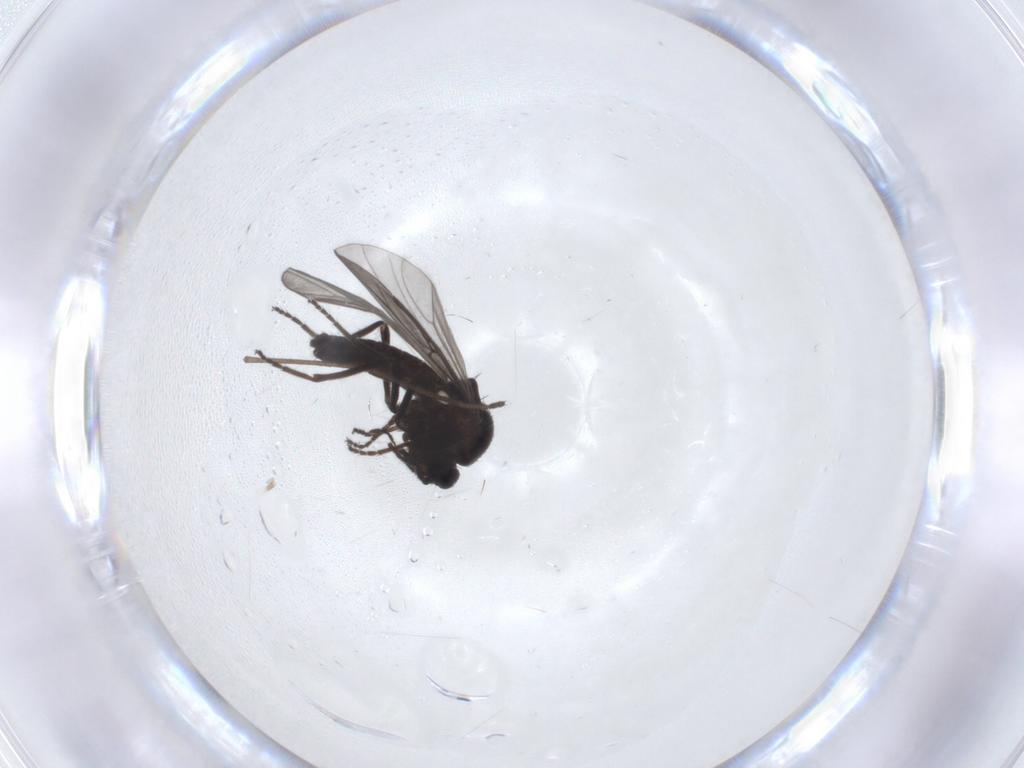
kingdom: Animalia
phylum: Arthropoda
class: Insecta
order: Diptera
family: Ceratopogonidae
